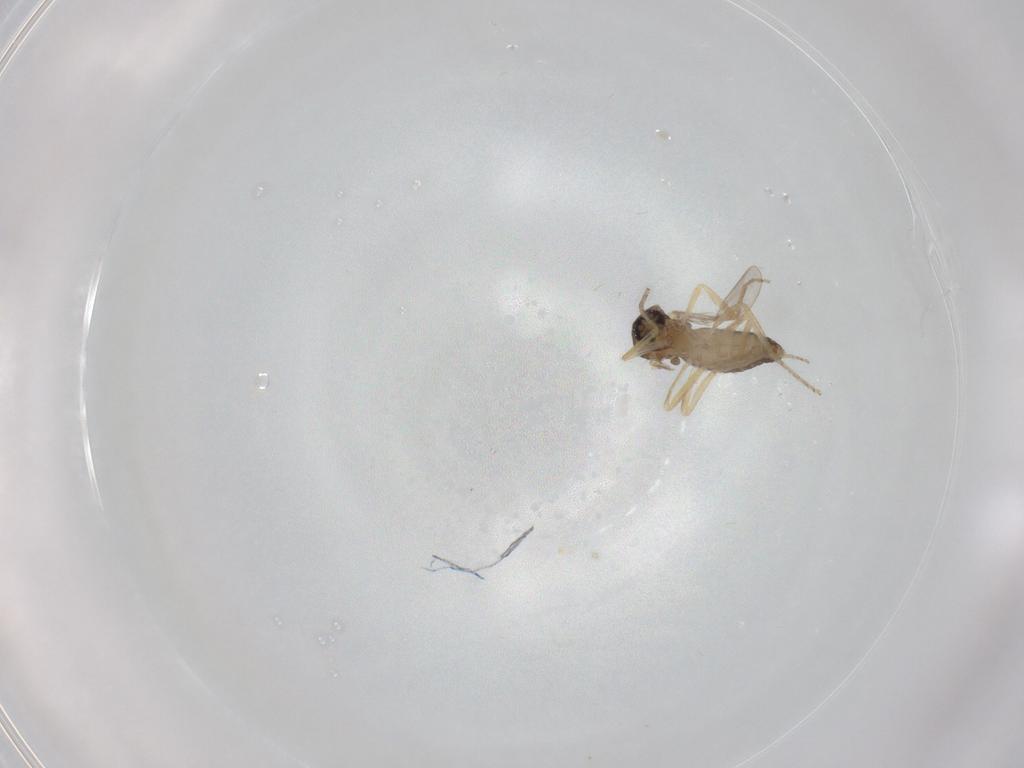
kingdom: Animalia
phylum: Arthropoda
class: Insecta
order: Diptera
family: Ceratopogonidae
